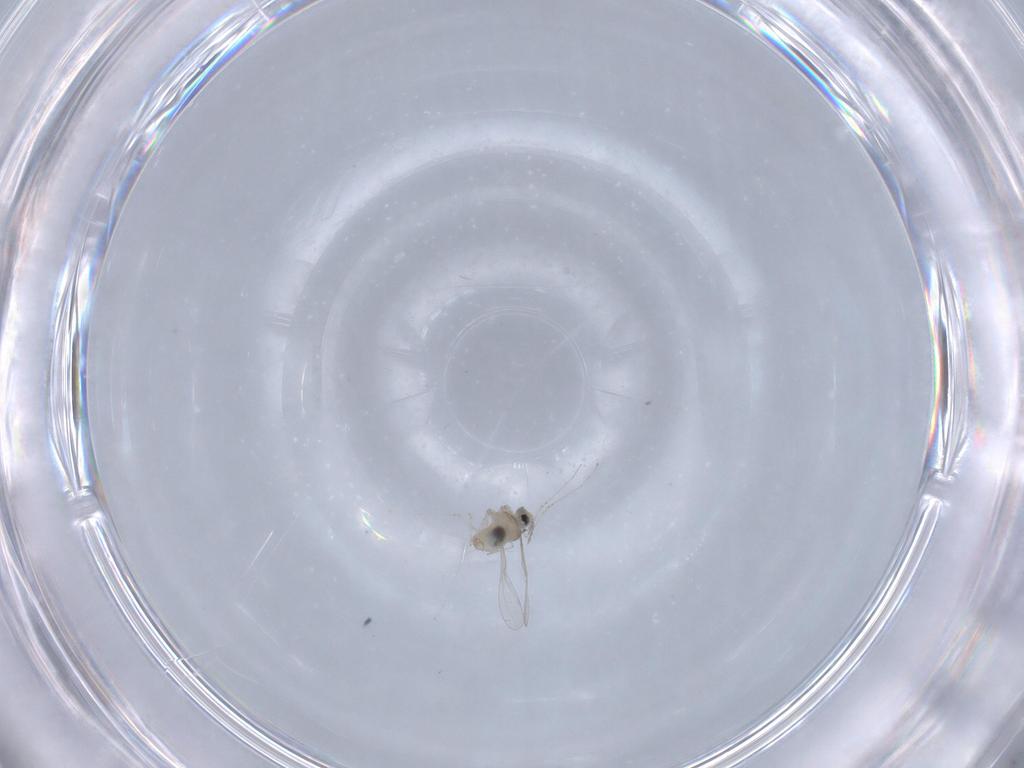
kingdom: Animalia
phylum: Arthropoda
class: Insecta
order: Diptera
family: Cecidomyiidae
